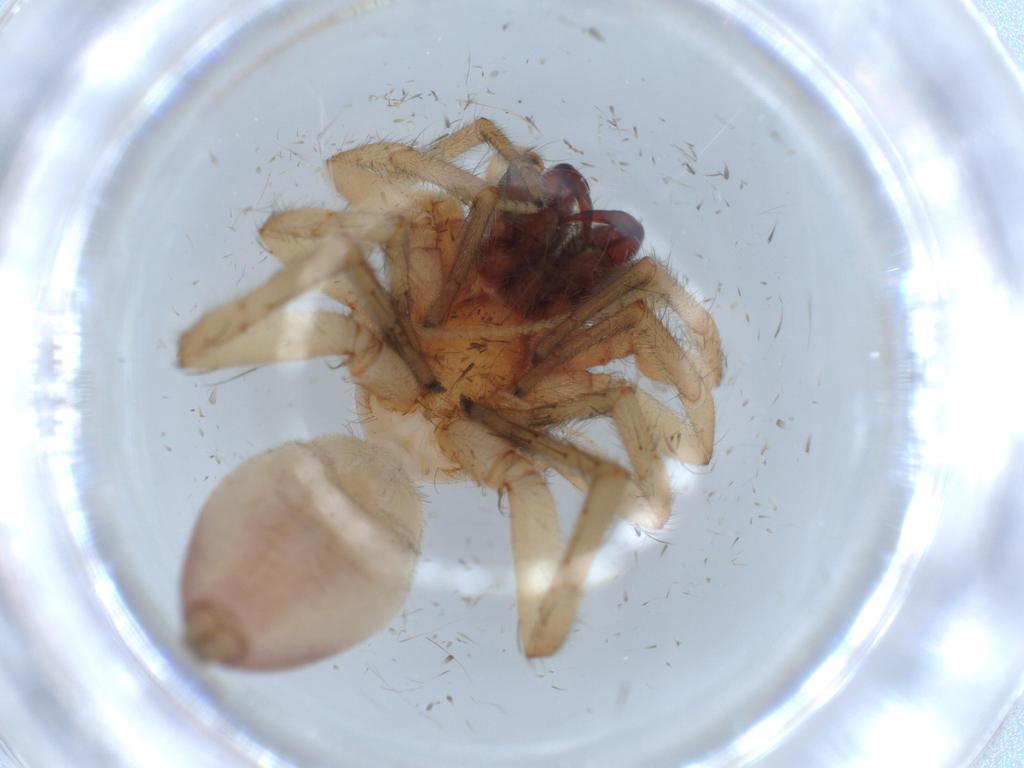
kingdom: Animalia
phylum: Arthropoda
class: Arachnida
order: Araneae
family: Clubionidae
